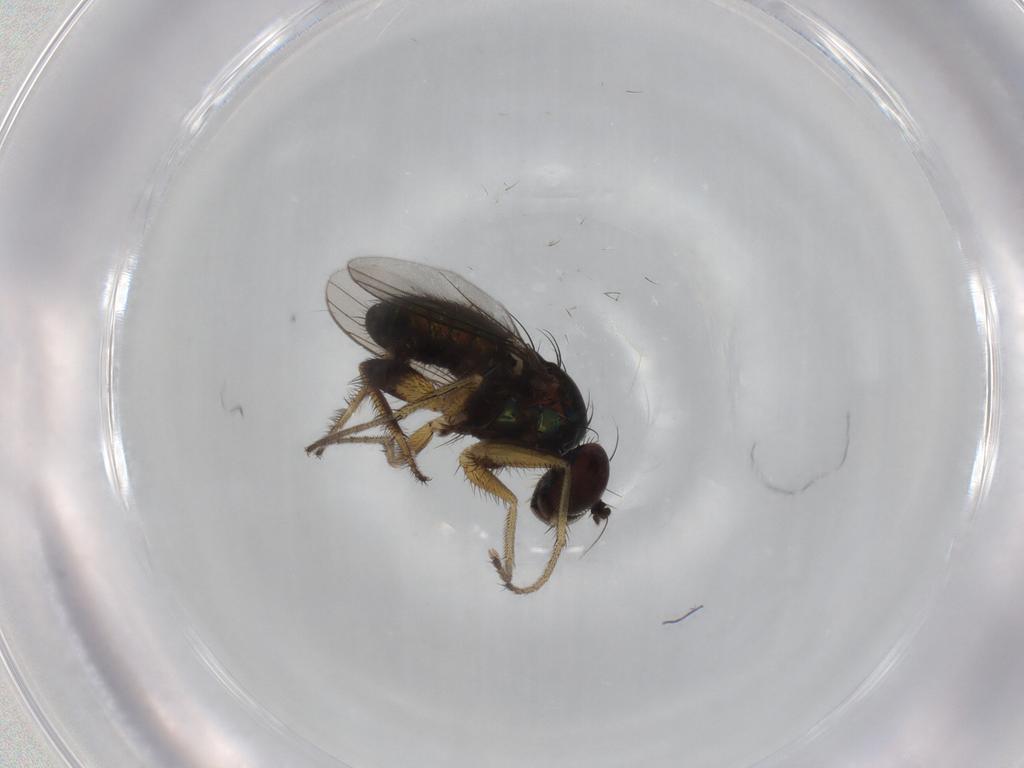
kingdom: Animalia
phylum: Arthropoda
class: Insecta
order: Diptera
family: Dolichopodidae
